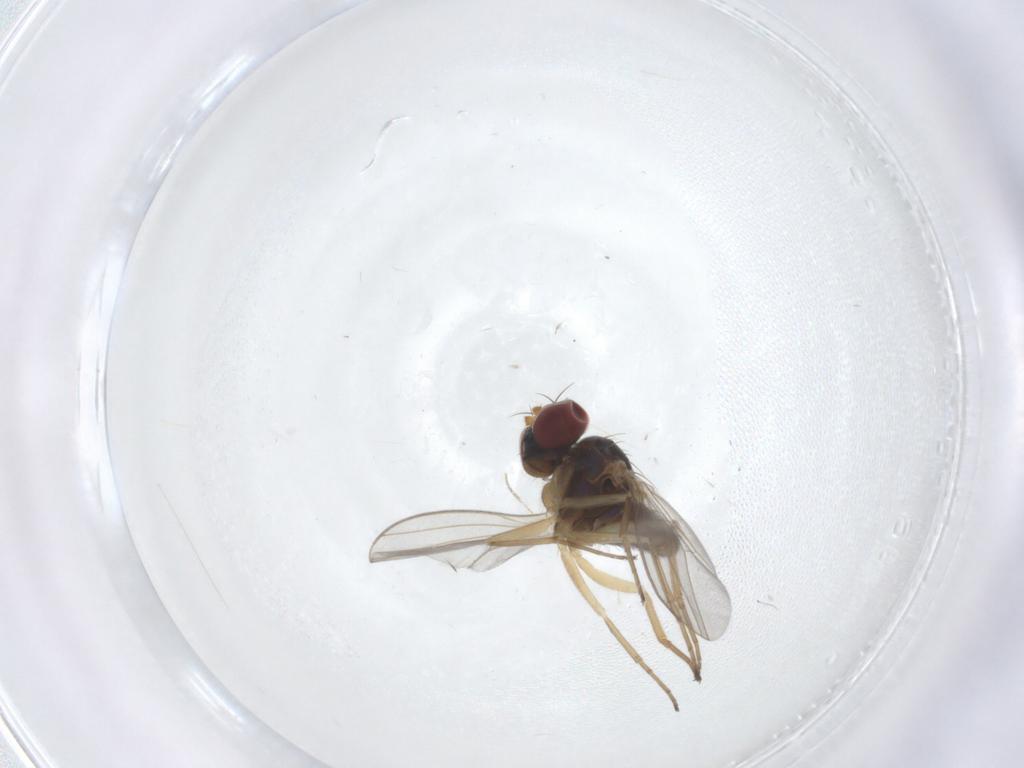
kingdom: Animalia
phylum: Arthropoda
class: Insecta
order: Diptera
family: Dolichopodidae
